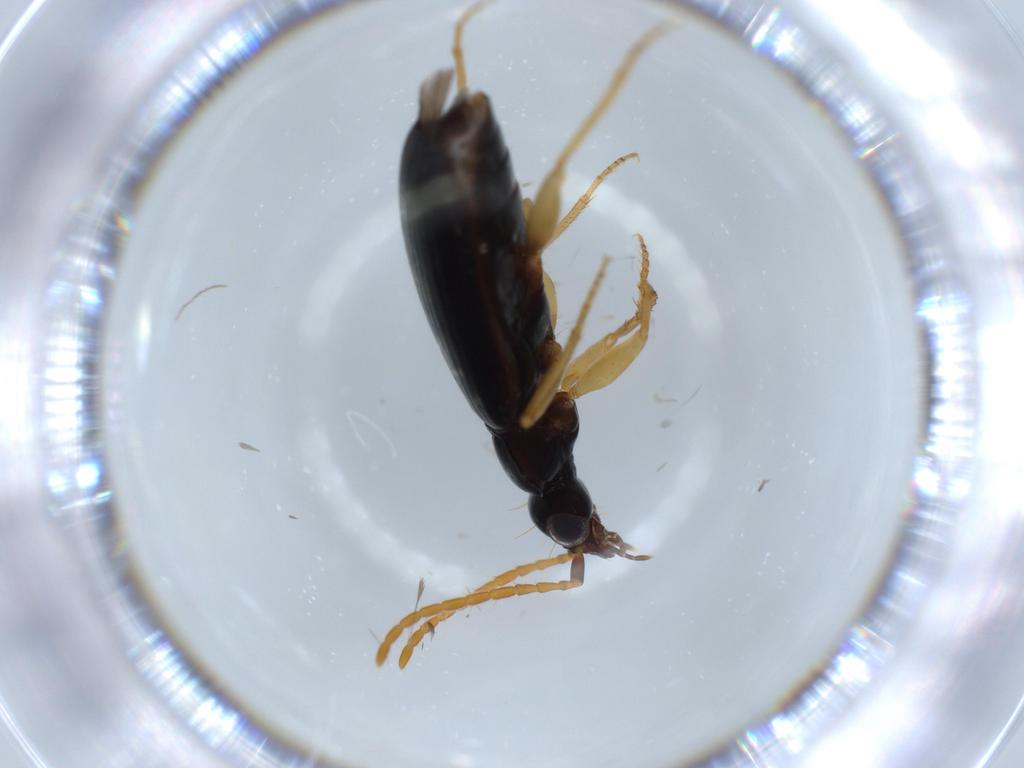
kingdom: Animalia
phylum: Arthropoda
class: Insecta
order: Coleoptera
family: Carabidae
